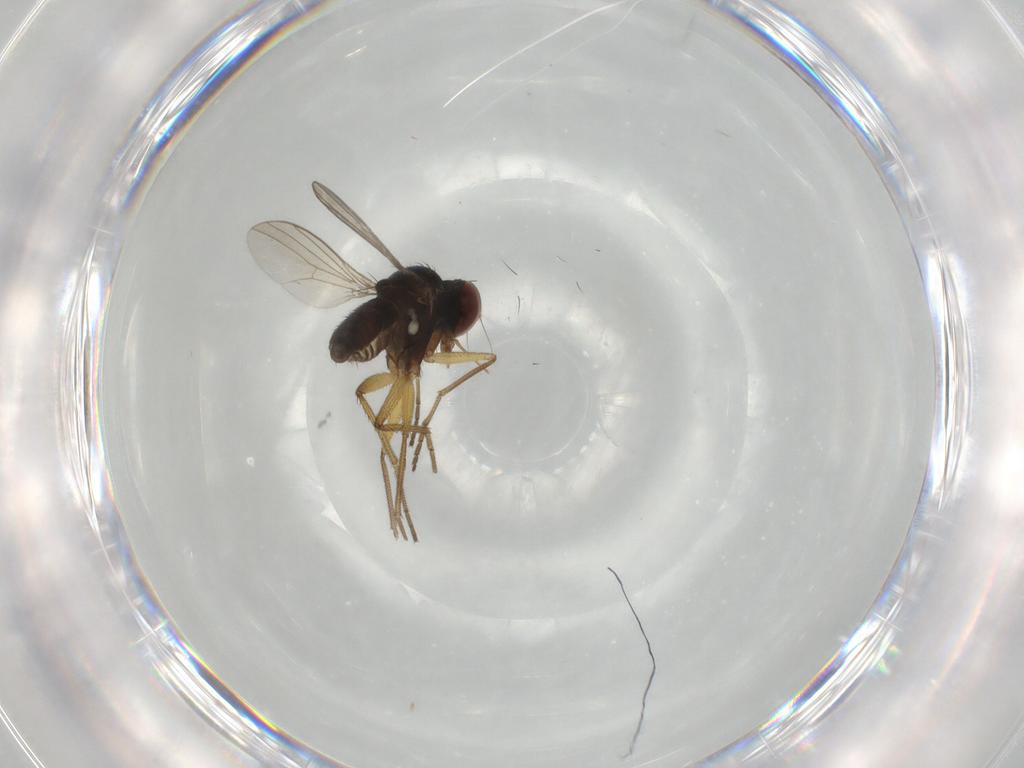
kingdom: Animalia
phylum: Arthropoda
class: Insecta
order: Diptera
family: Dolichopodidae
